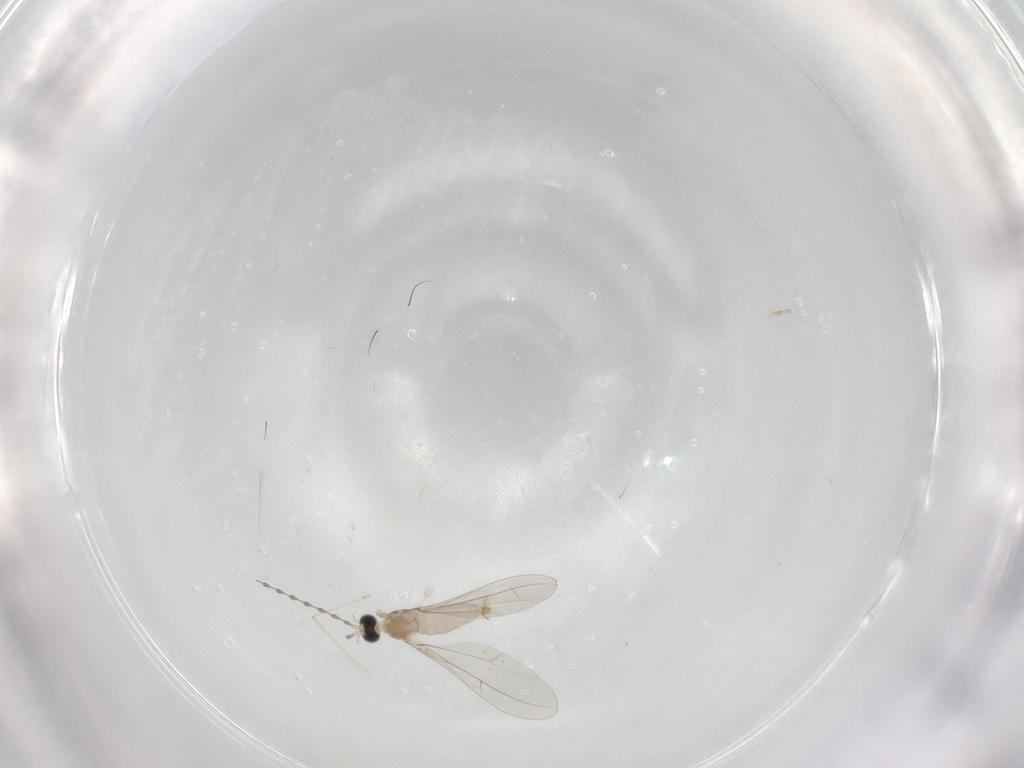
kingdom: Animalia
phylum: Arthropoda
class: Insecta
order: Diptera
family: Cecidomyiidae
